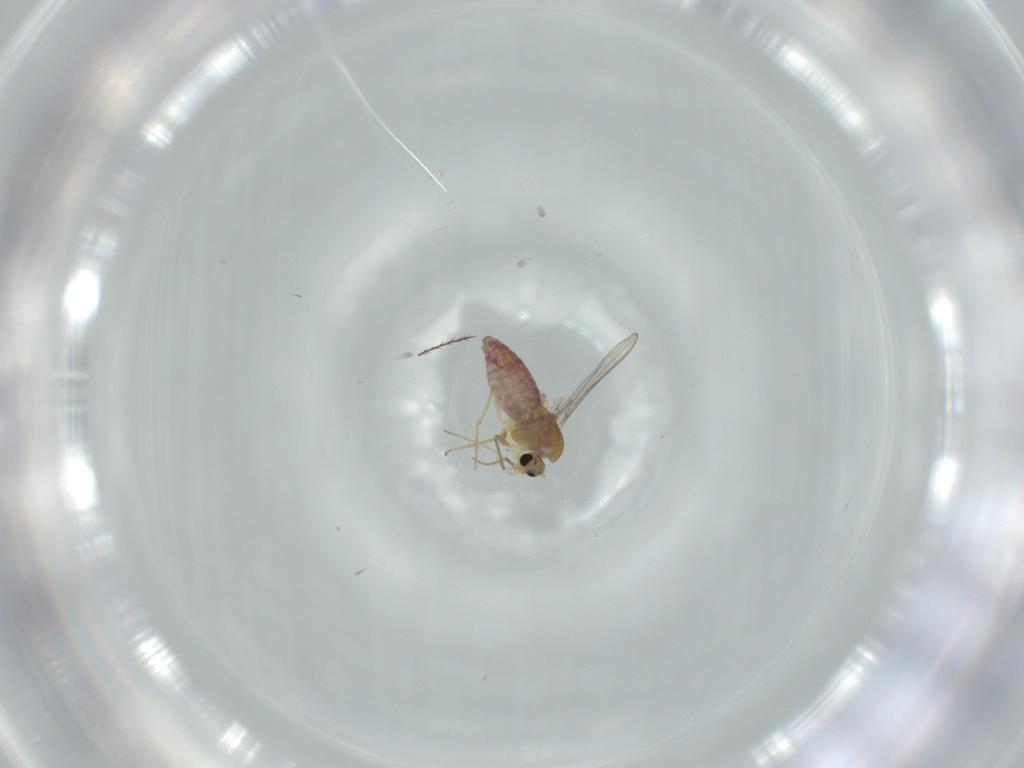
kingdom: Animalia
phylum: Arthropoda
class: Insecta
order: Diptera
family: Chironomidae
